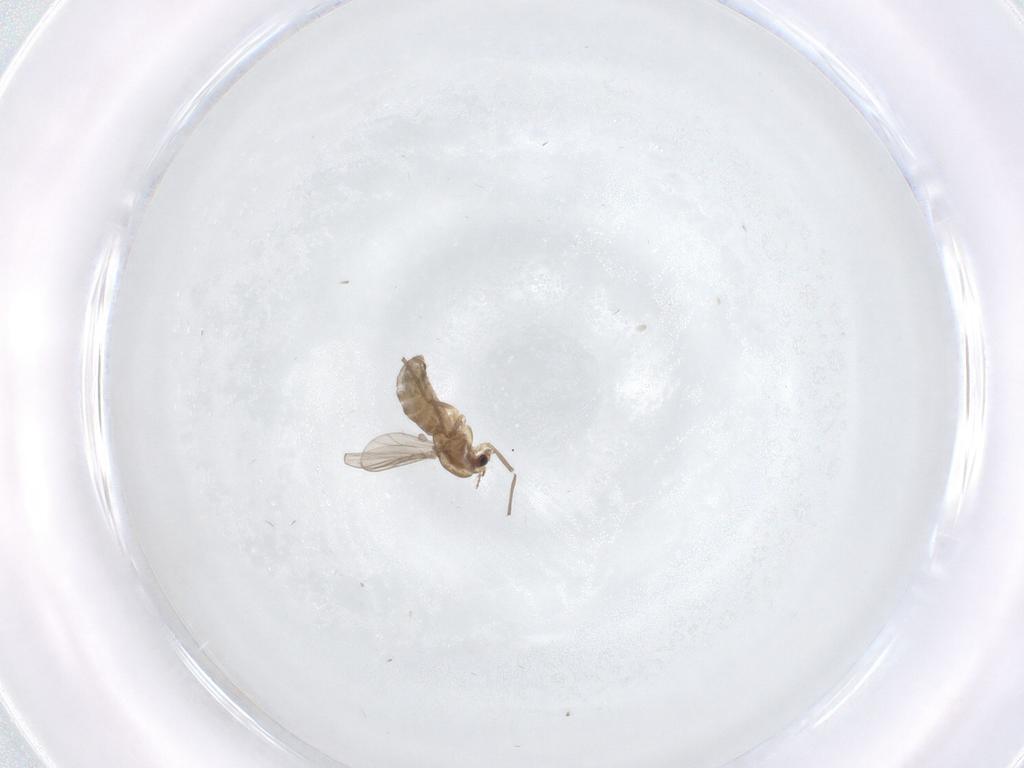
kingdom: Animalia
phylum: Arthropoda
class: Insecta
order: Diptera
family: Chironomidae
